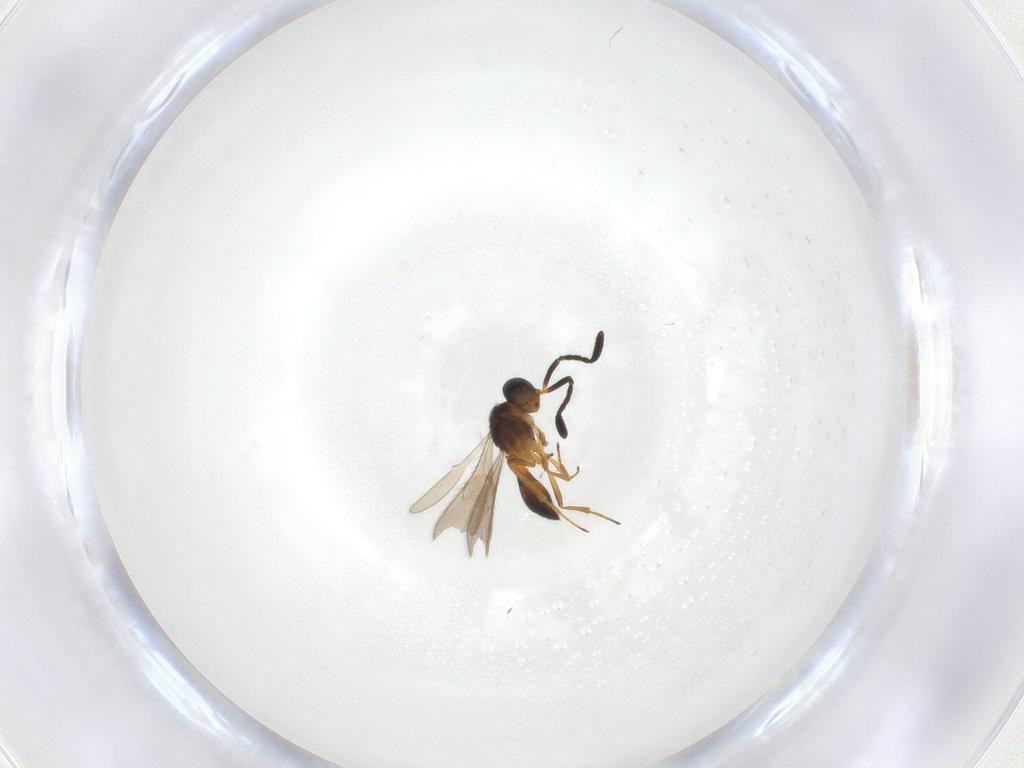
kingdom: Animalia
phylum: Arthropoda
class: Insecta
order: Hymenoptera
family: Scelionidae
